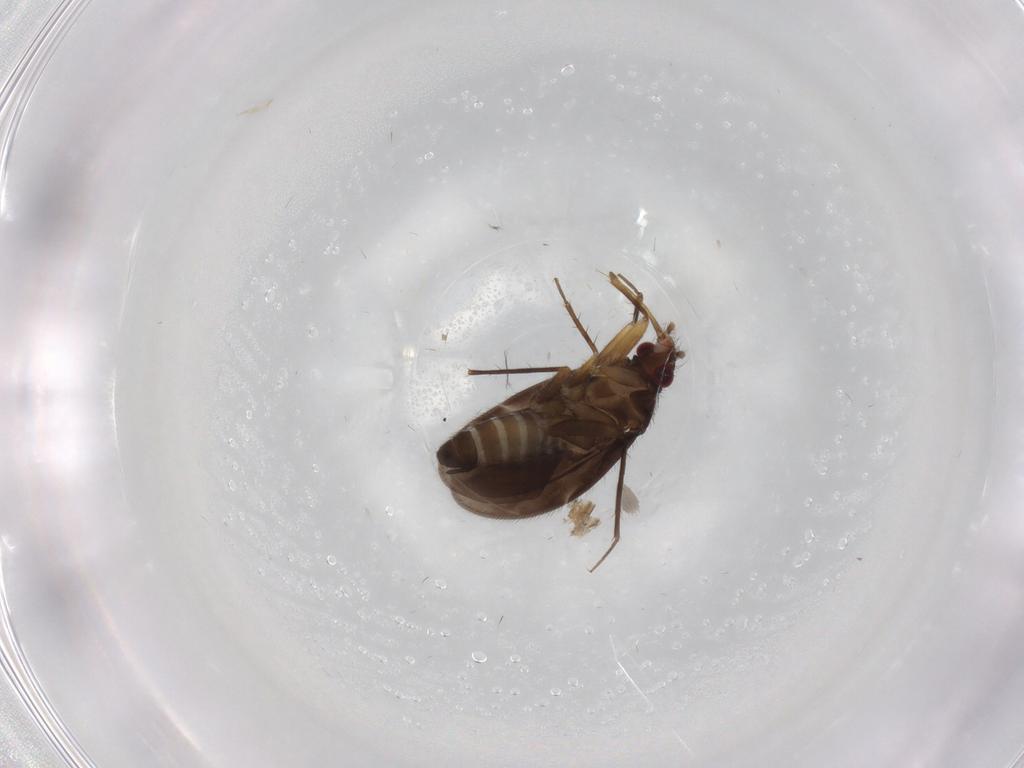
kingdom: Animalia
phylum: Arthropoda
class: Insecta
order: Hemiptera
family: Ceratocombidae
